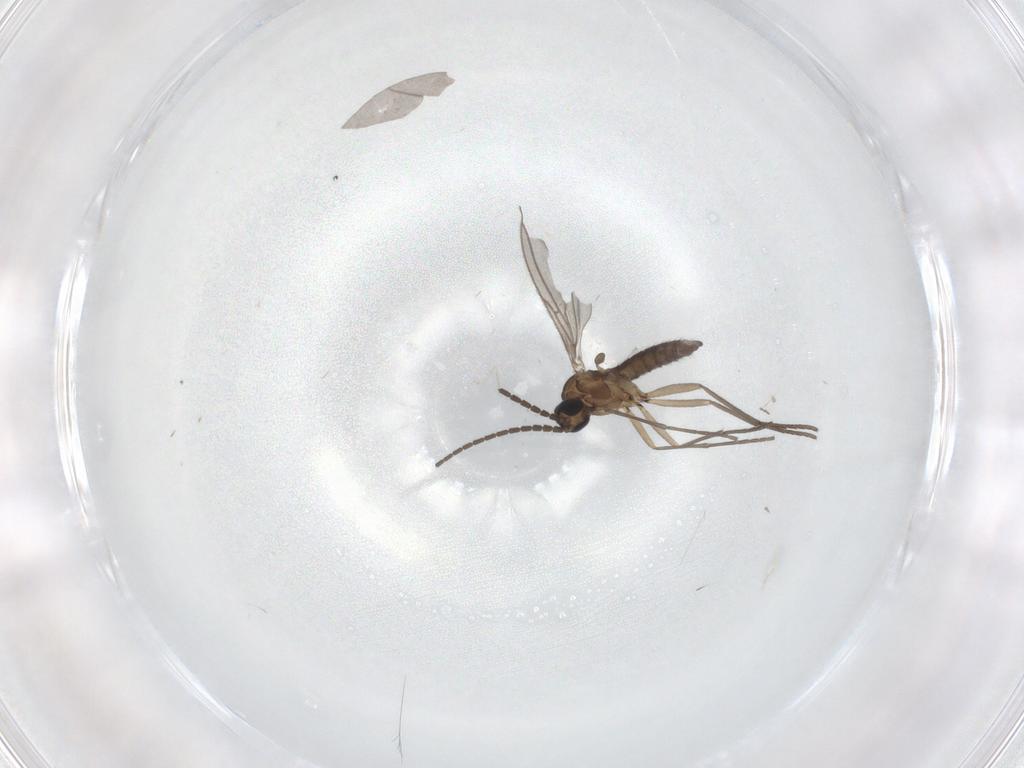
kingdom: Animalia
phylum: Arthropoda
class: Insecta
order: Diptera
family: Sciaridae
